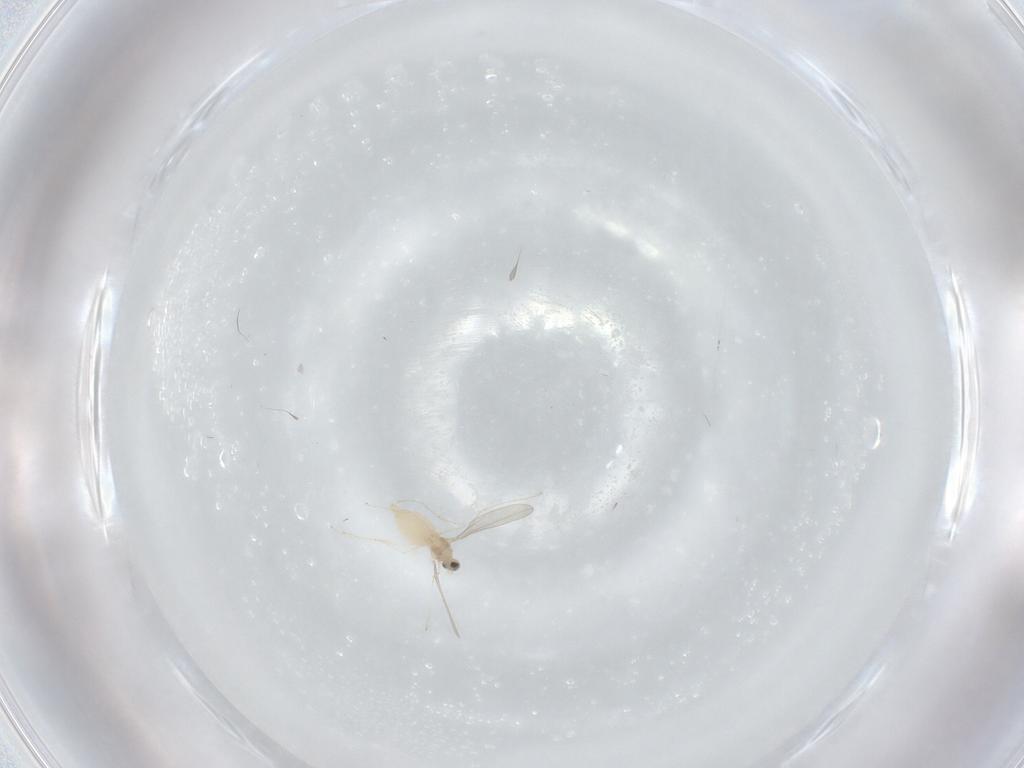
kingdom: Animalia
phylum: Arthropoda
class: Insecta
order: Diptera
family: Cecidomyiidae
